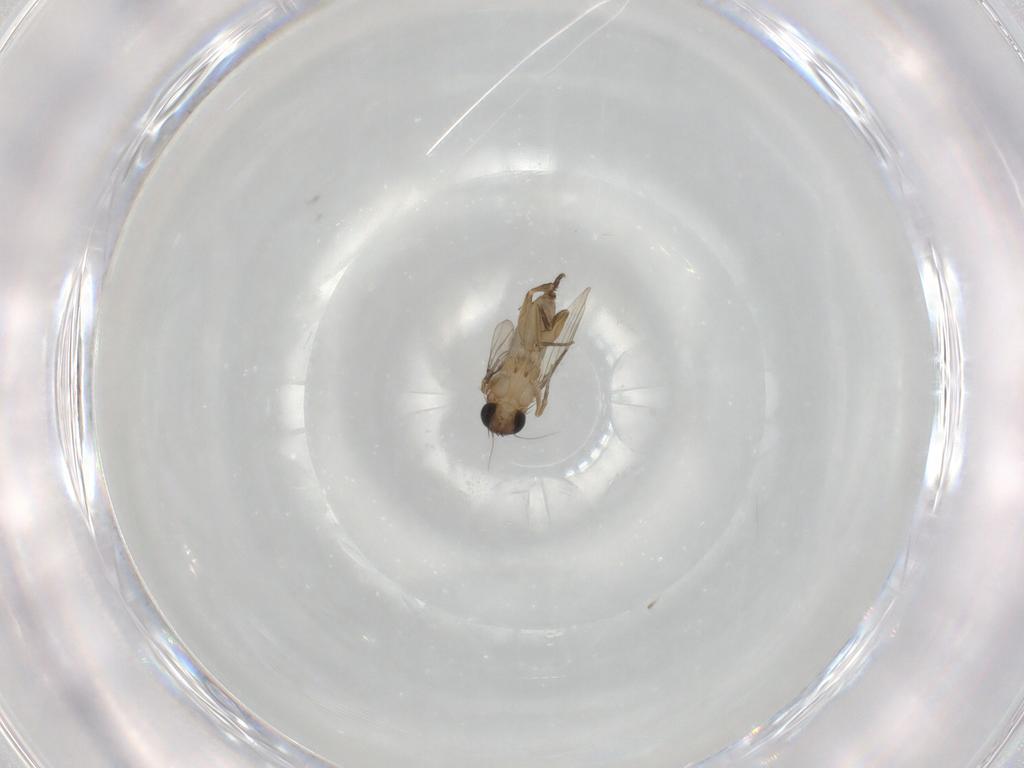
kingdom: Animalia
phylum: Arthropoda
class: Insecta
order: Diptera
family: Phoridae
